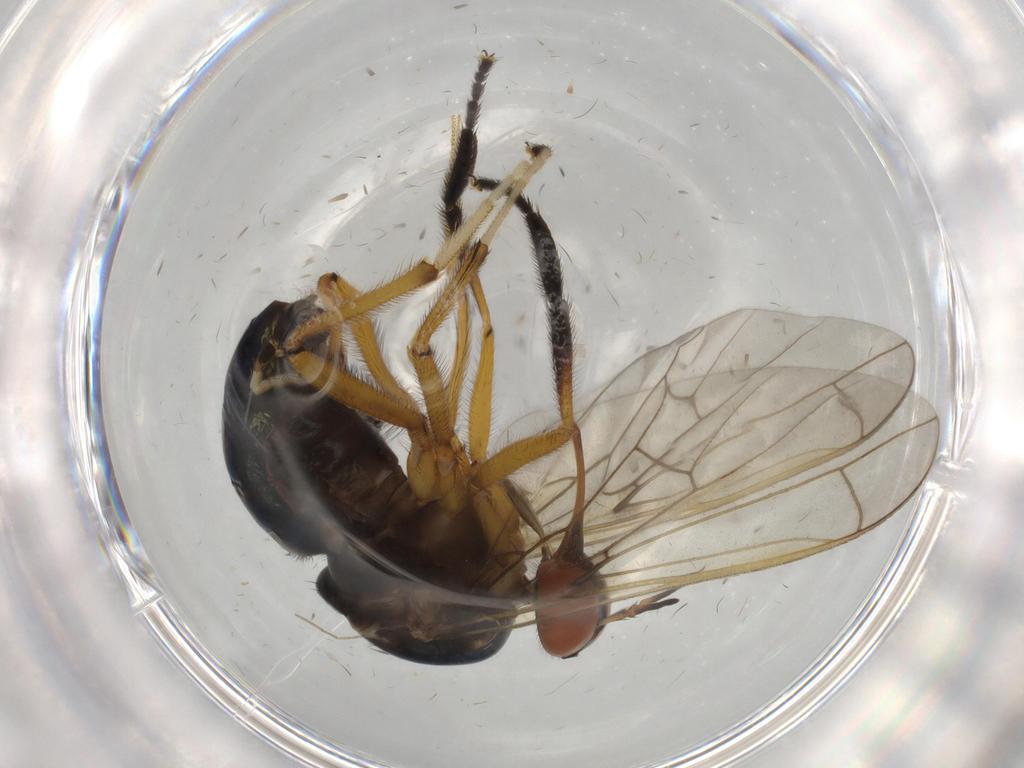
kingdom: Animalia
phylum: Arthropoda
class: Insecta
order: Diptera
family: Empididae
